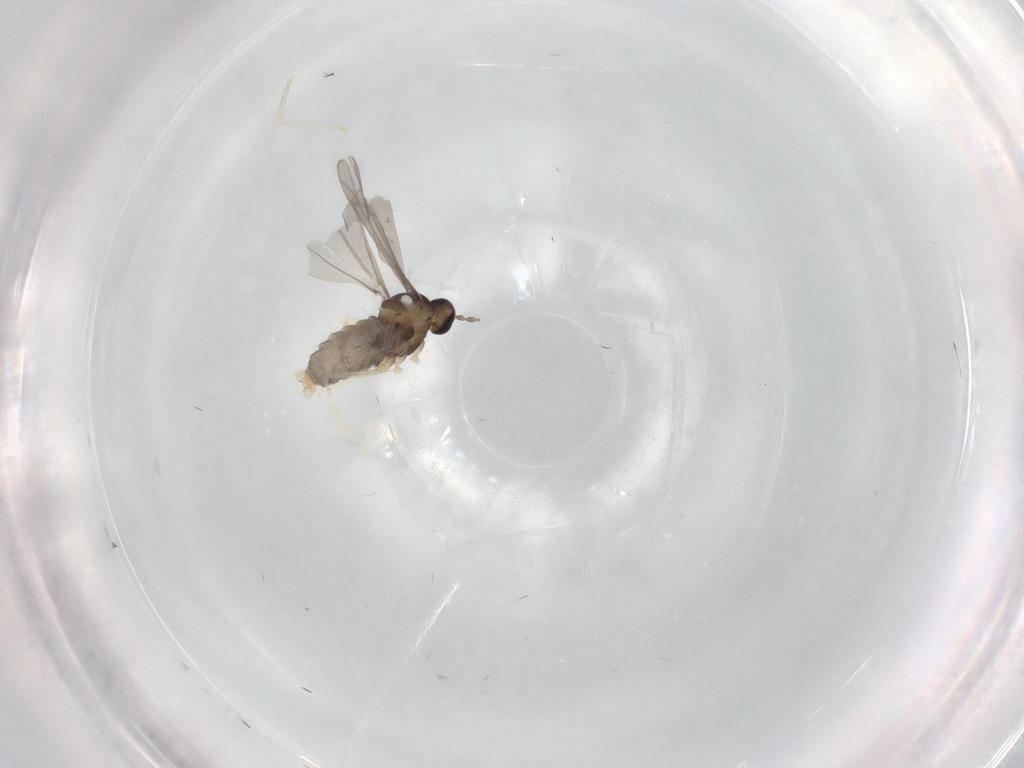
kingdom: Animalia
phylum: Arthropoda
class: Insecta
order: Diptera
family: Cecidomyiidae
